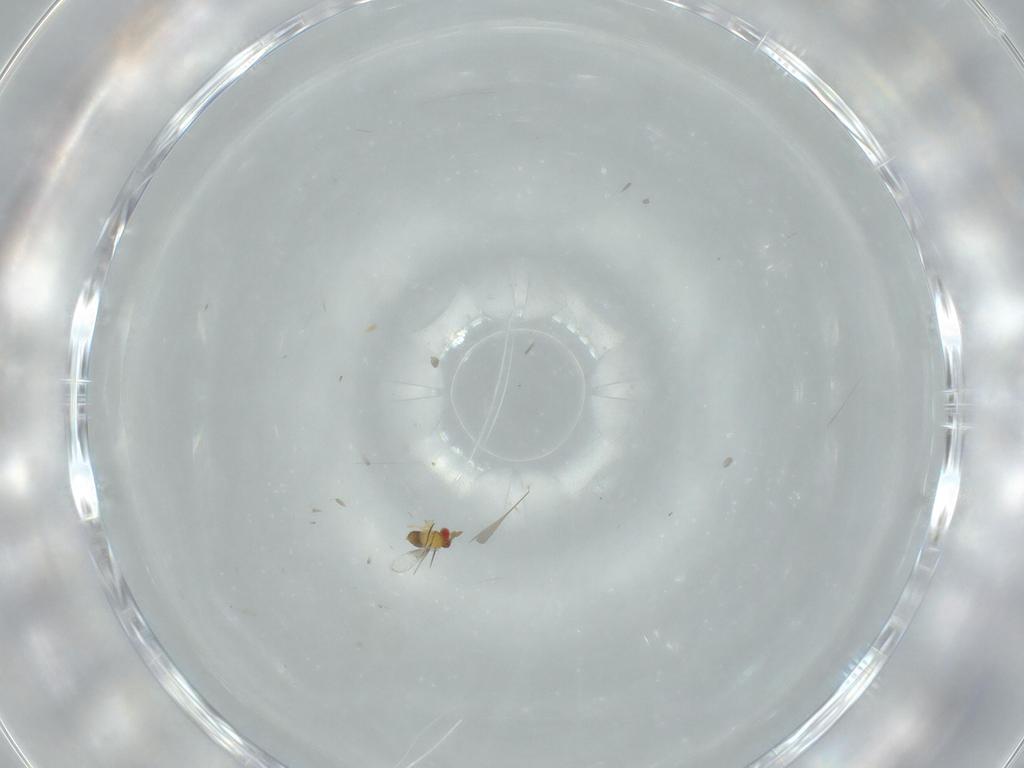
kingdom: Animalia
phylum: Arthropoda
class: Insecta
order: Hymenoptera
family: Trichogrammatidae
